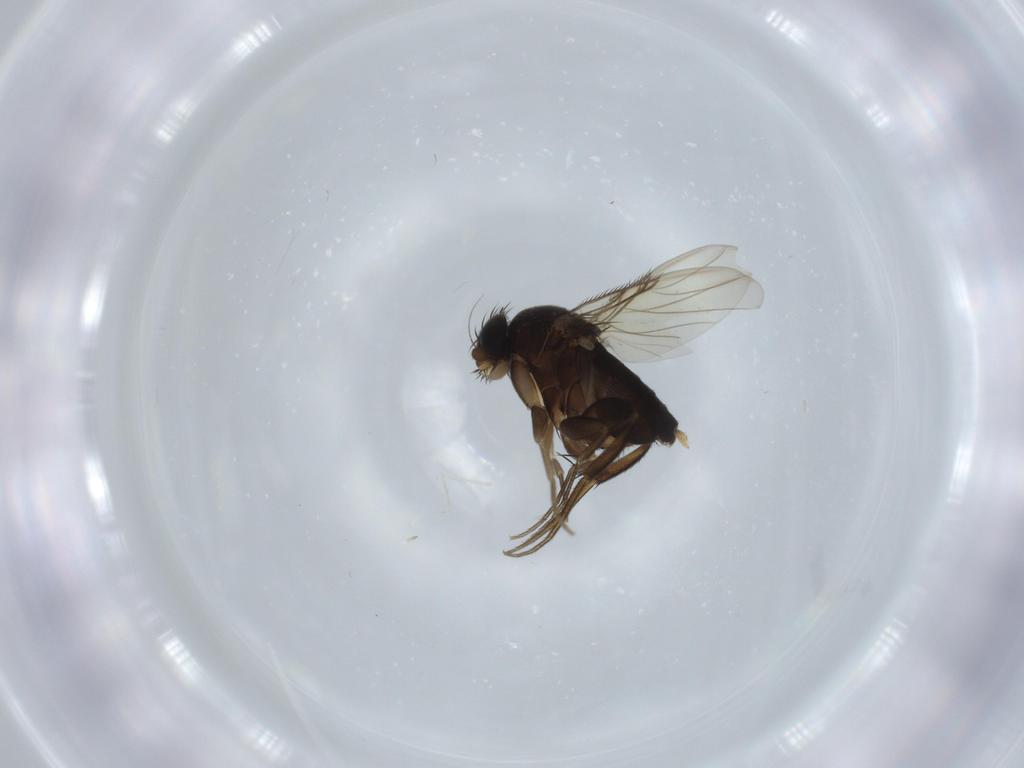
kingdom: Animalia
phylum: Arthropoda
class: Insecta
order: Diptera
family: Phoridae
